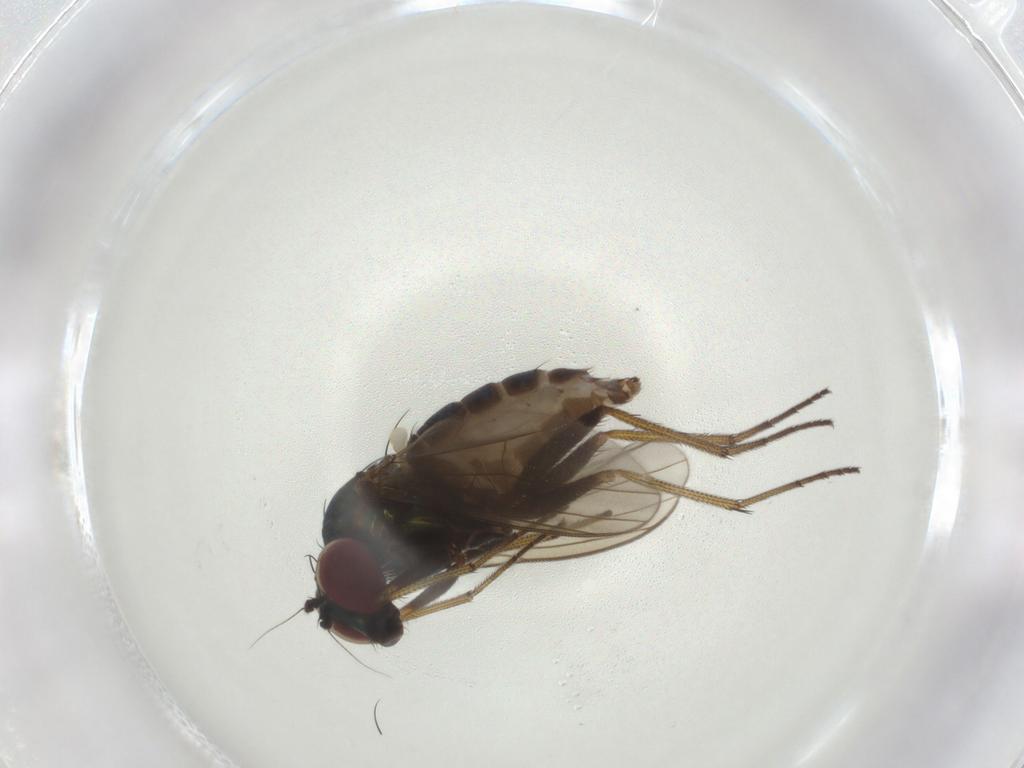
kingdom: Animalia
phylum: Arthropoda
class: Insecta
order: Diptera
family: Dolichopodidae
